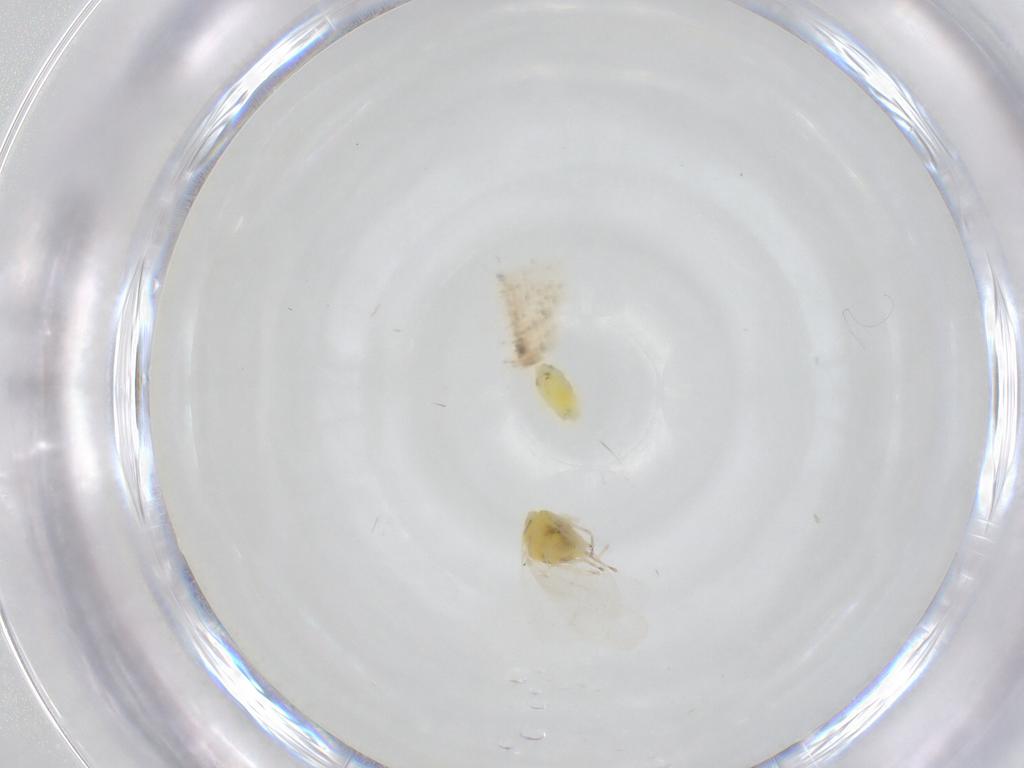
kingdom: Animalia
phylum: Arthropoda
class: Insecta
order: Hemiptera
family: Aleyrodidae
